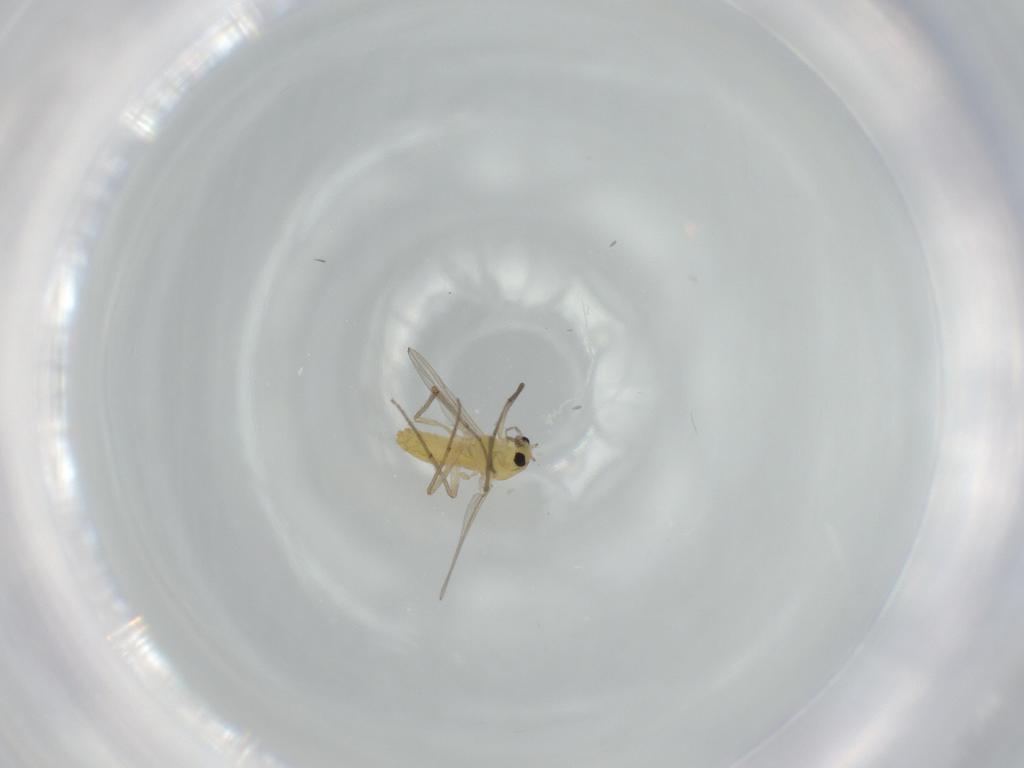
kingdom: Animalia
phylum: Arthropoda
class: Insecta
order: Diptera
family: Chironomidae
